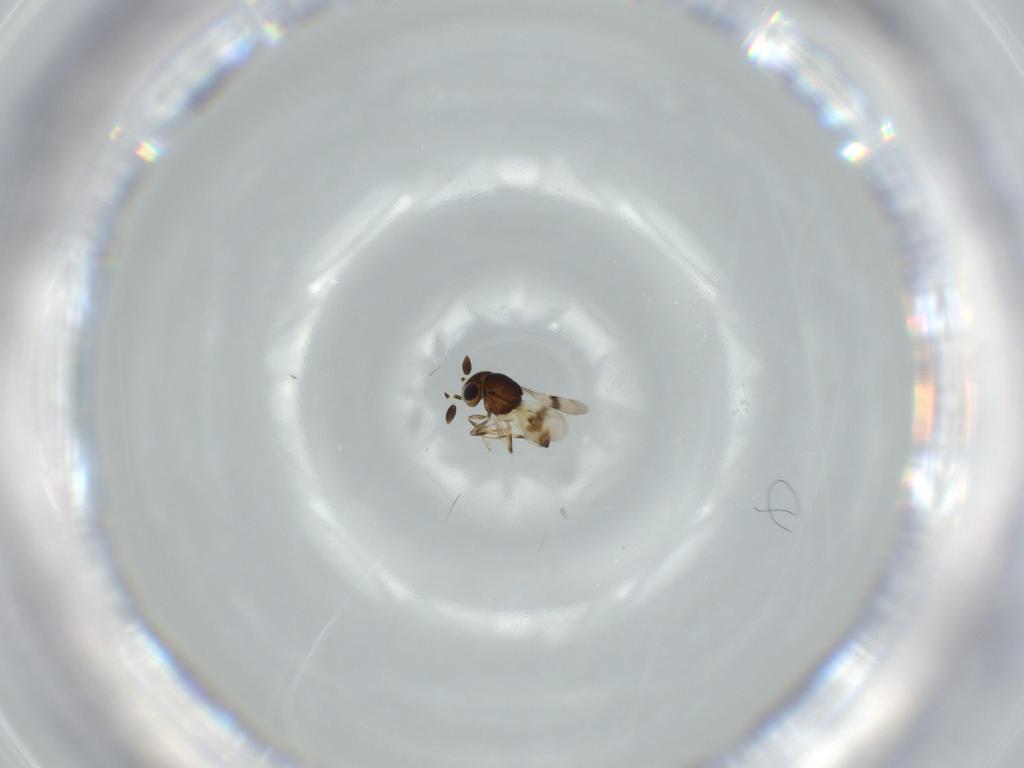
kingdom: Animalia
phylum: Arthropoda
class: Arachnida
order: Araneae
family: Pholcidae
